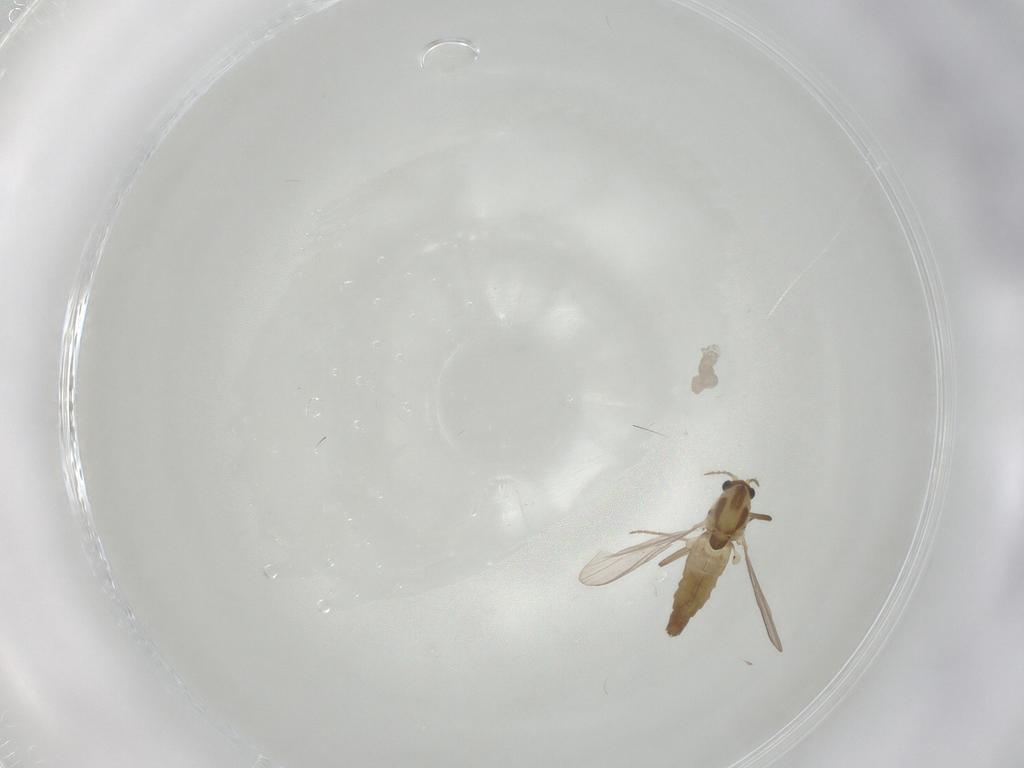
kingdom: Animalia
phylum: Arthropoda
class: Insecta
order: Diptera
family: Chironomidae
